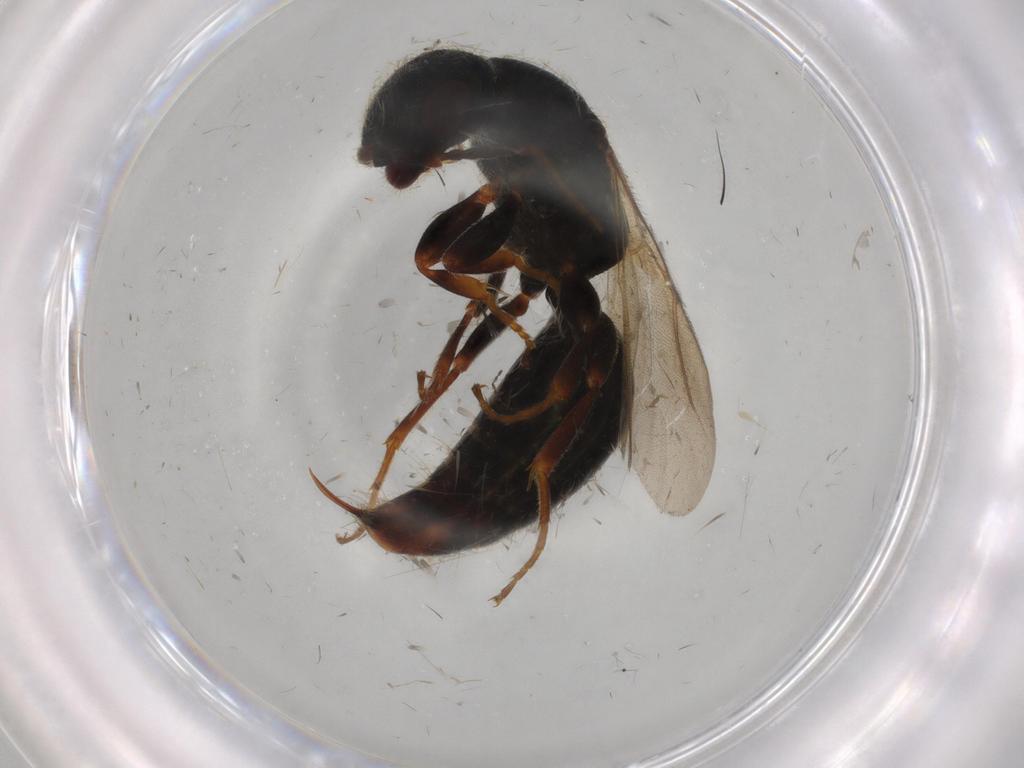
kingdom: Animalia
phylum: Arthropoda
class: Insecta
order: Hymenoptera
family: Bethylidae
